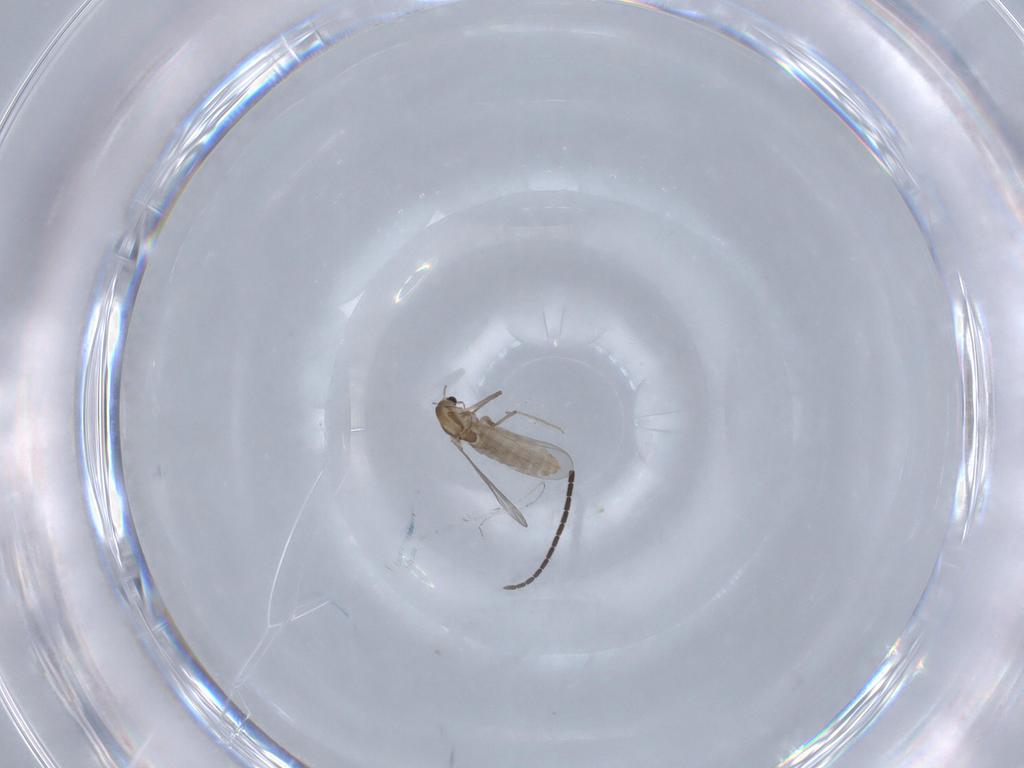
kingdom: Animalia
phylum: Arthropoda
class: Insecta
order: Diptera
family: Chironomidae
